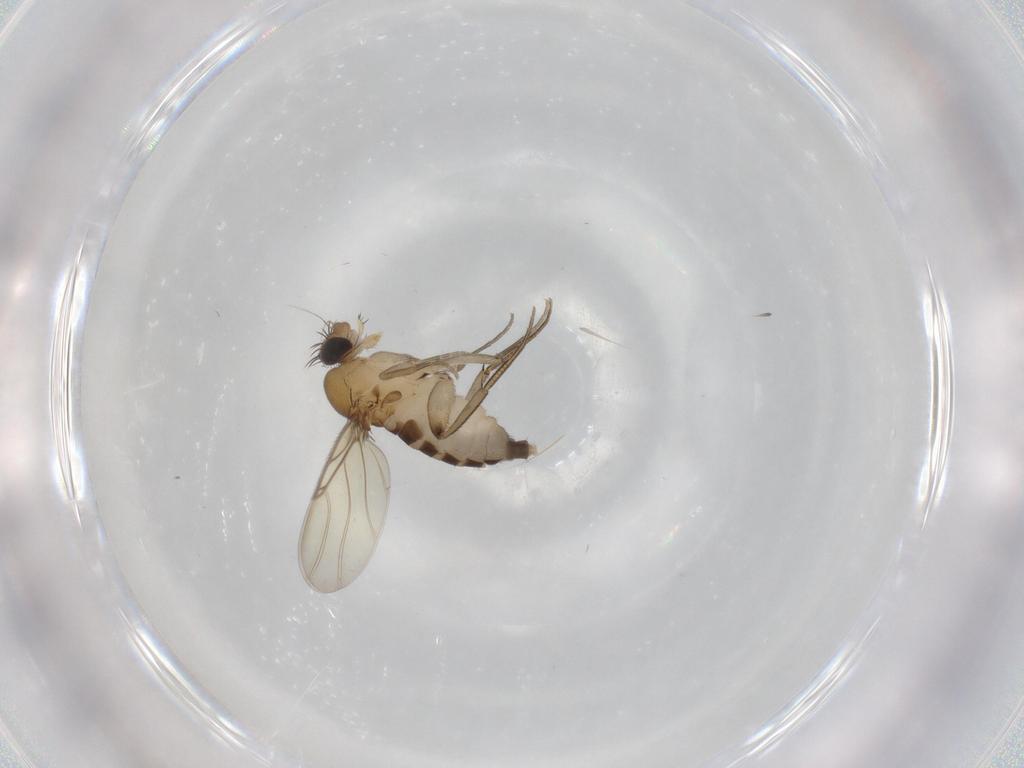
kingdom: Animalia
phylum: Arthropoda
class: Insecta
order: Diptera
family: Phoridae
